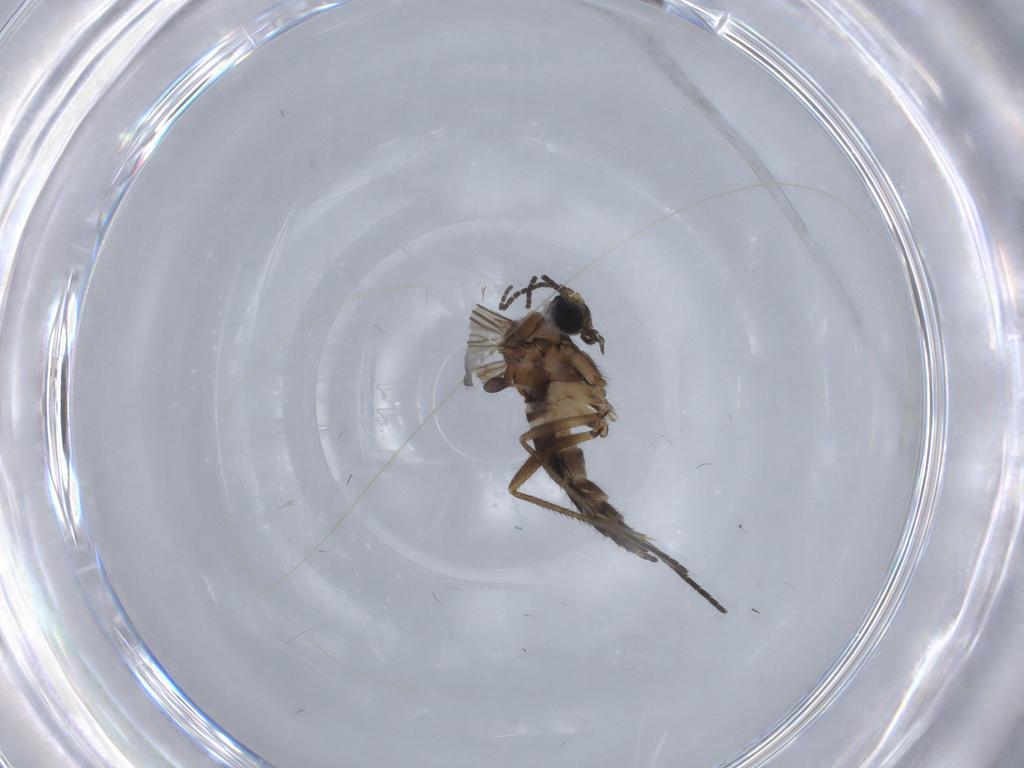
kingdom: Animalia
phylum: Arthropoda
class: Insecta
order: Diptera
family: Sciaridae
